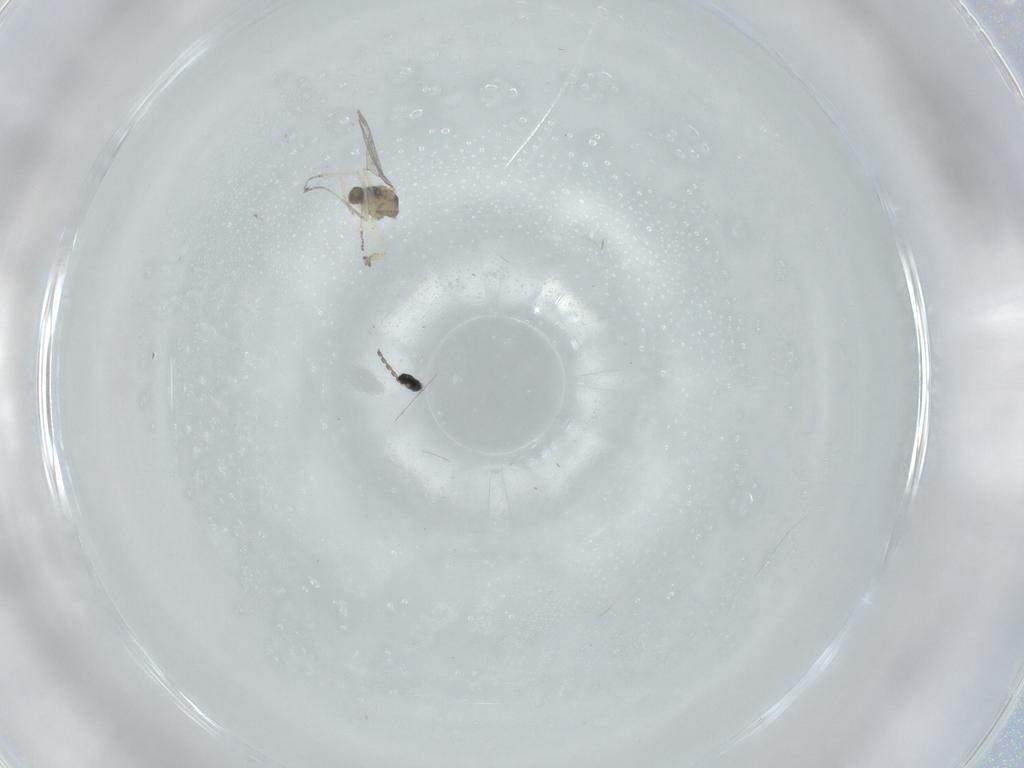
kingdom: Animalia
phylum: Arthropoda
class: Insecta
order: Diptera
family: Cecidomyiidae
